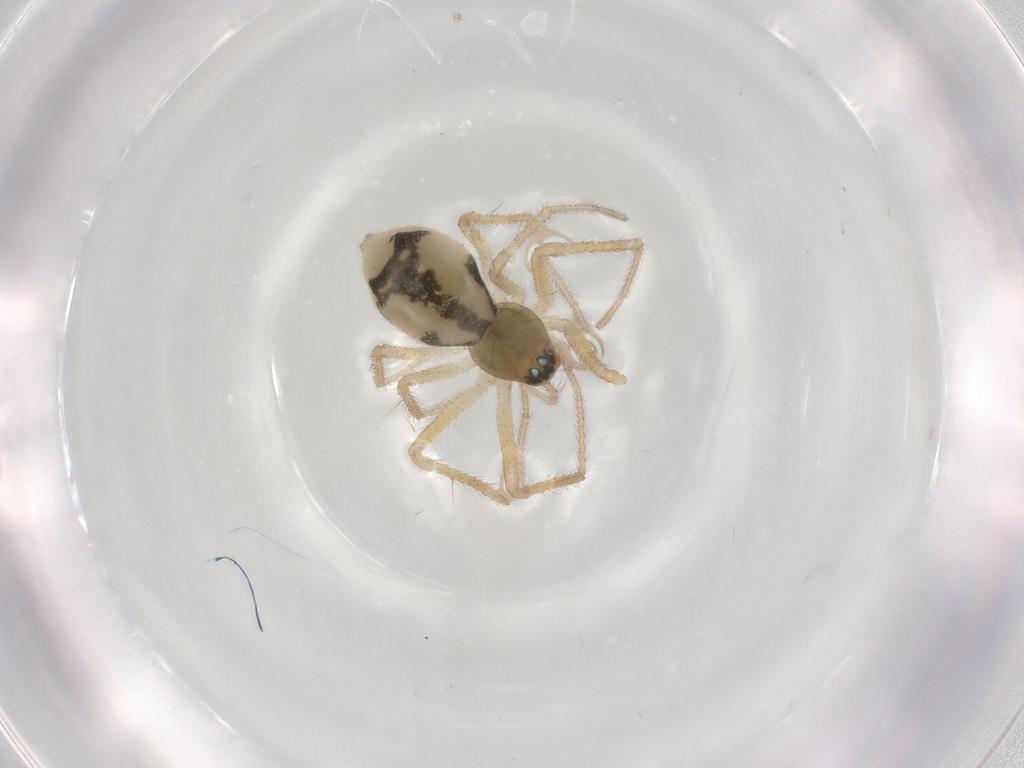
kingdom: Animalia
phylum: Arthropoda
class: Arachnida
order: Araneae
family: Linyphiidae
